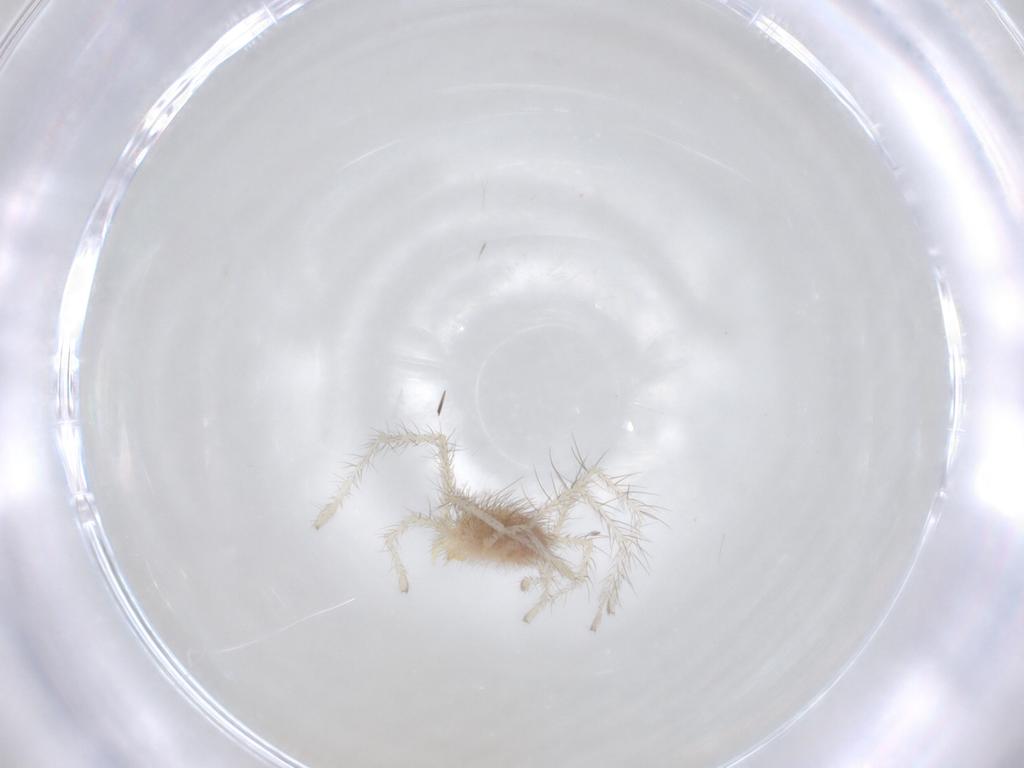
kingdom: Animalia
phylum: Arthropoda
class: Arachnida
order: Trombidiformes
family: Erythraeidae
